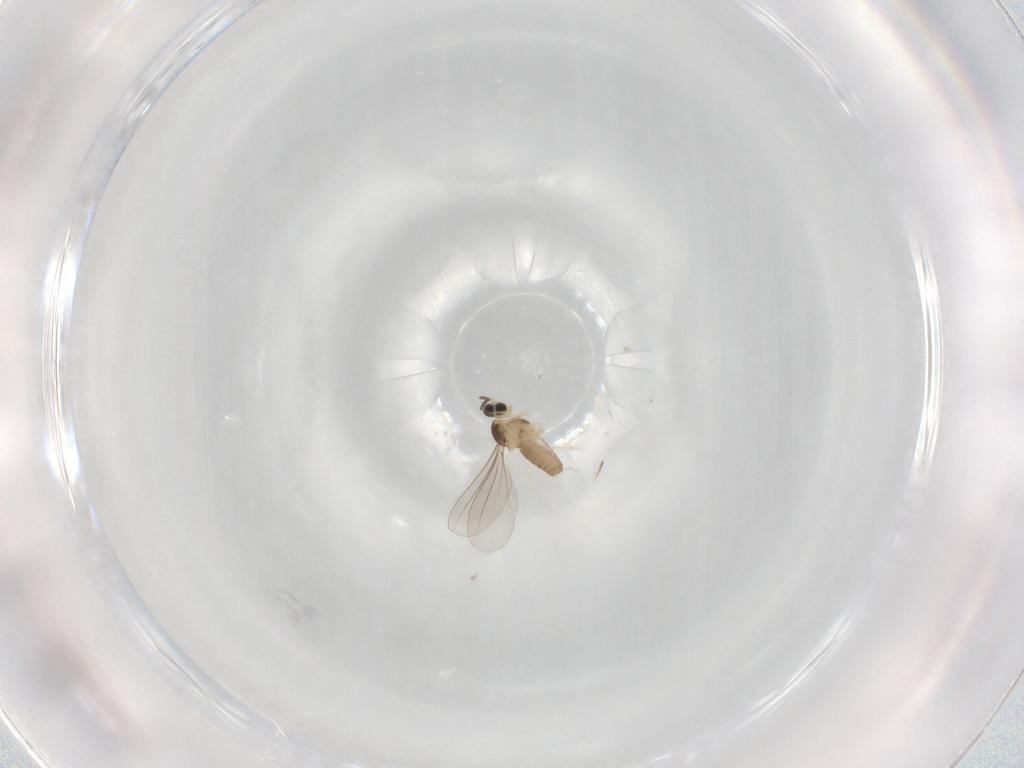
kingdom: Animalia
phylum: Arthropoda
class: Insecta
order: Diptera
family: Cecidomyiidae
